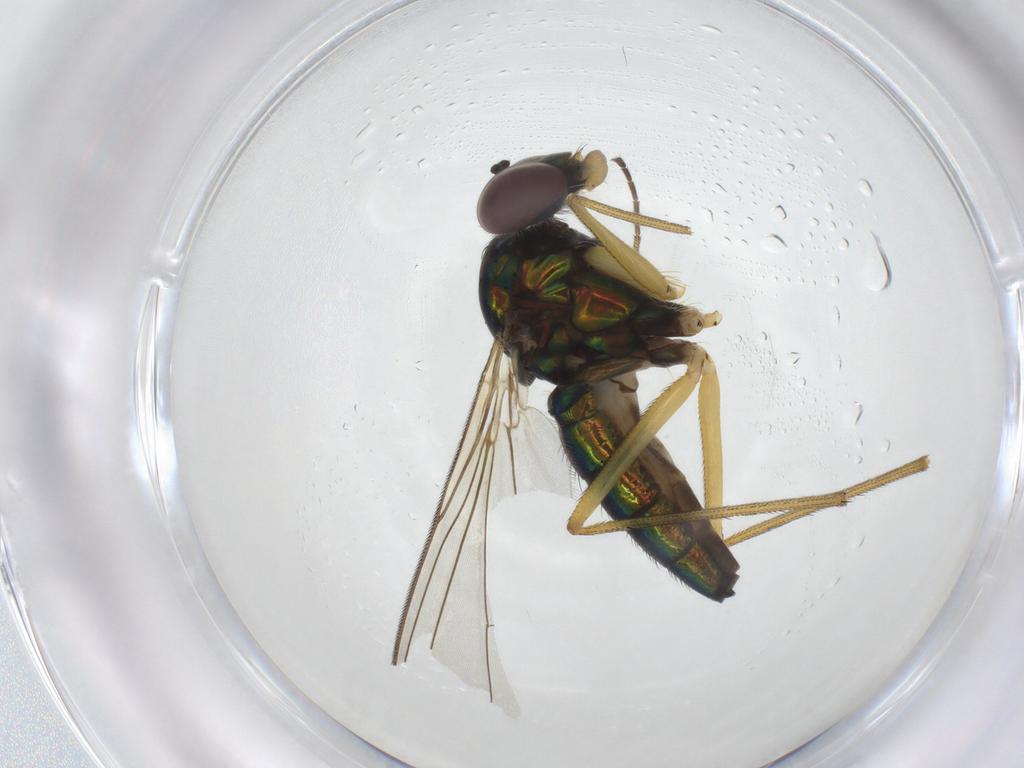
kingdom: Animalia
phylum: Arthropoda
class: Insecta
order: Diptera
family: Dolichopodidae
